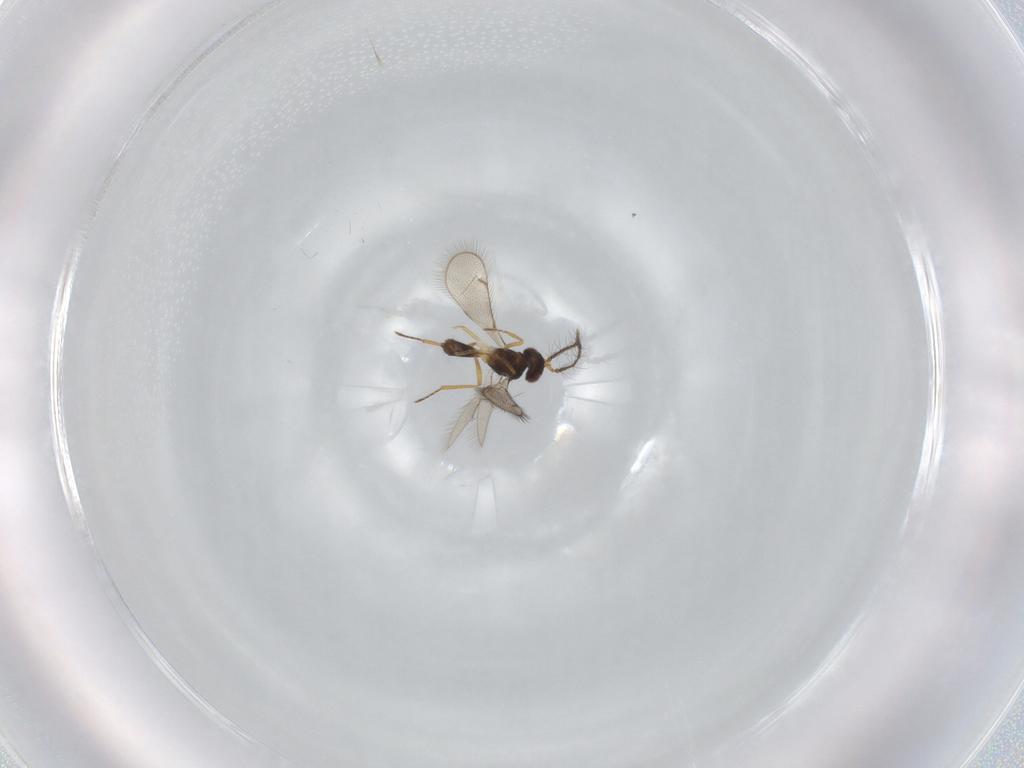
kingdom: Animalia
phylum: Arthropoda
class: Insecta
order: Hymenoptera
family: Eulophidae
